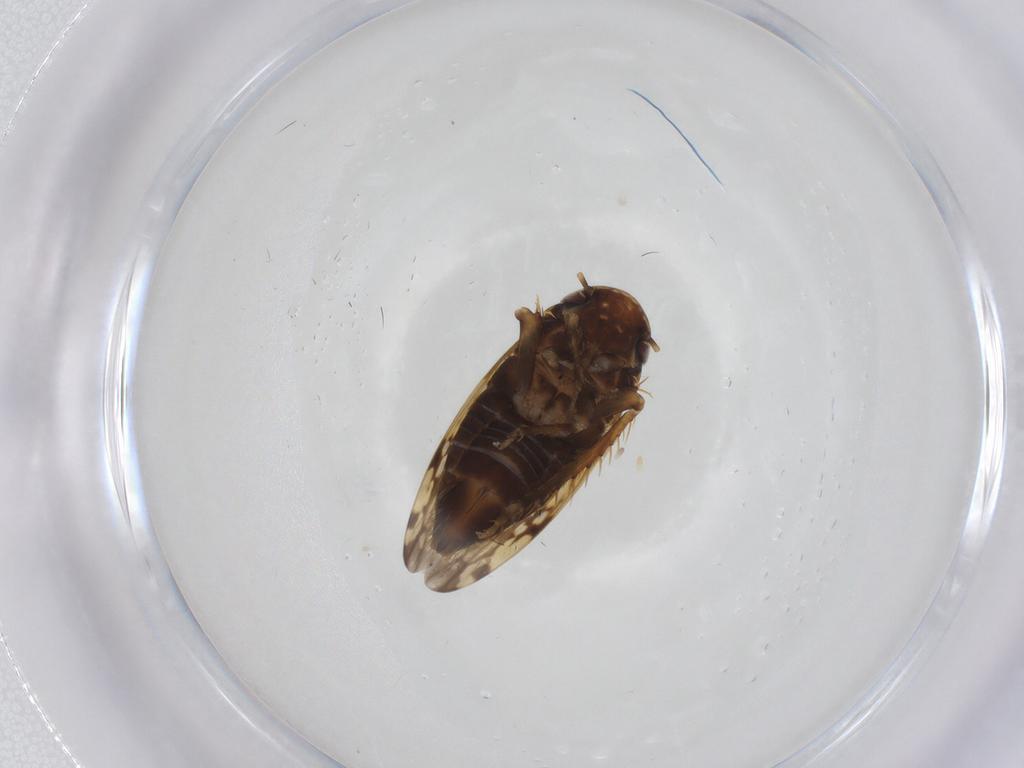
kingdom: Animalia
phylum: Arthropoda
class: Insecta
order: Hemiptera
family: Cicadellidae
